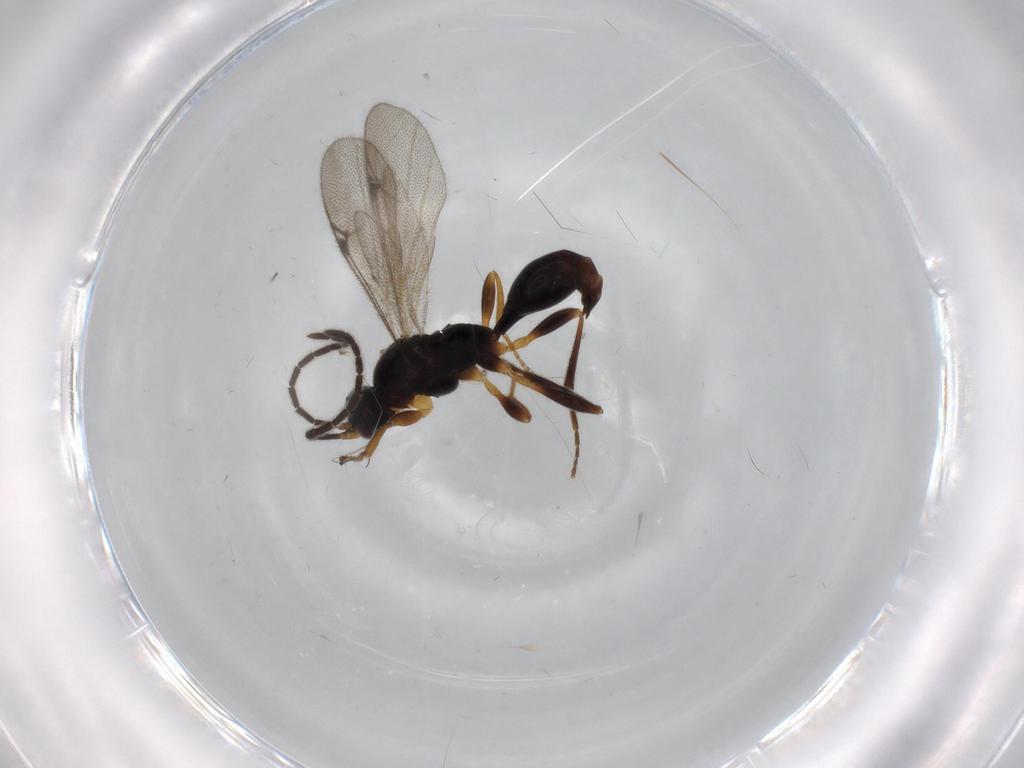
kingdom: Animalia
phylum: Arthropoda
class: Insecta
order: Hymenoptera
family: Proctotrupidae
